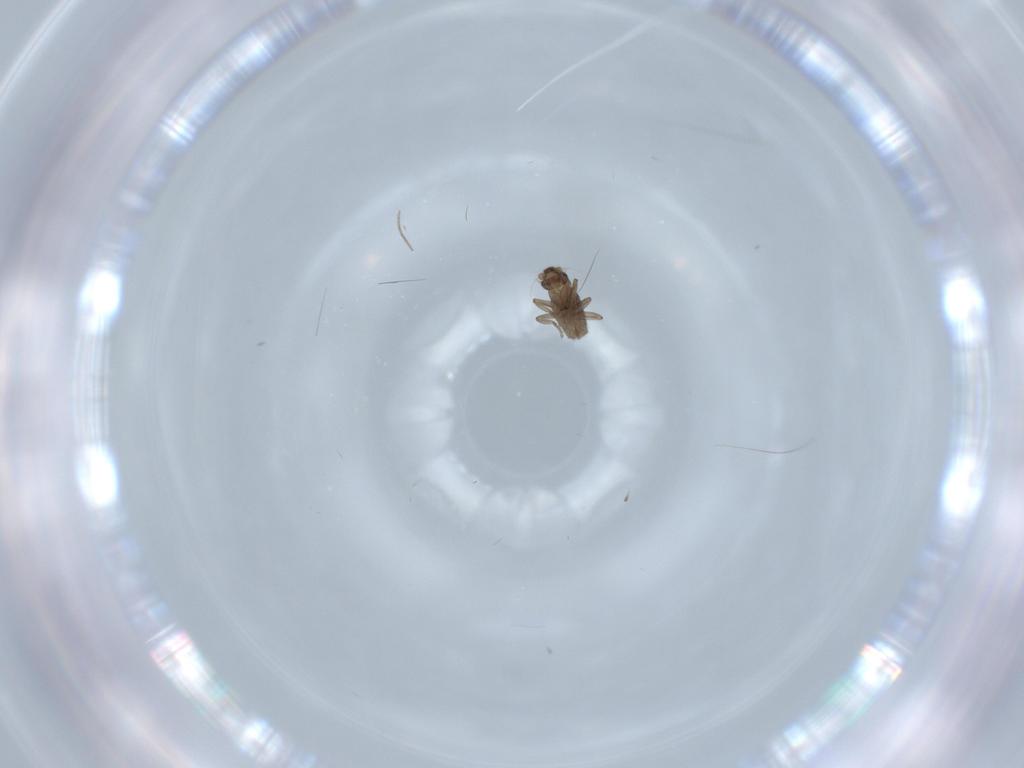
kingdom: Animalia
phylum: Arthropoda
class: Insecta
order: Diptera
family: Phoridae
